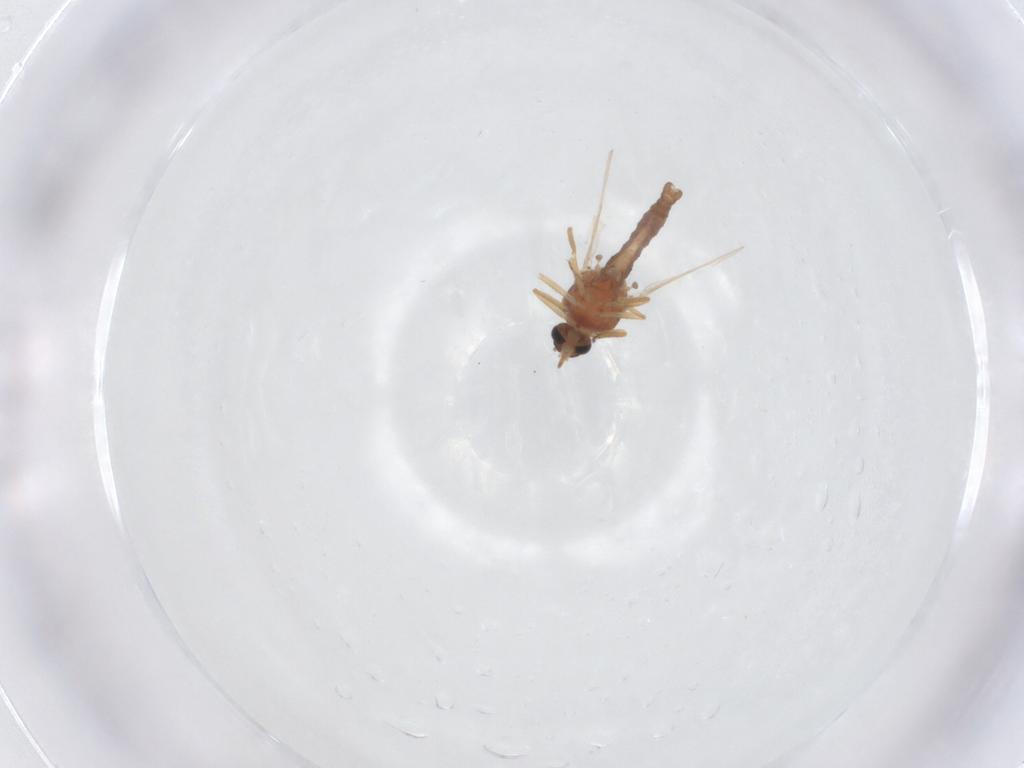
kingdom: Animalia
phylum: Arthropoda
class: Insecta
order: Diptera
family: Ceratopogonidae
